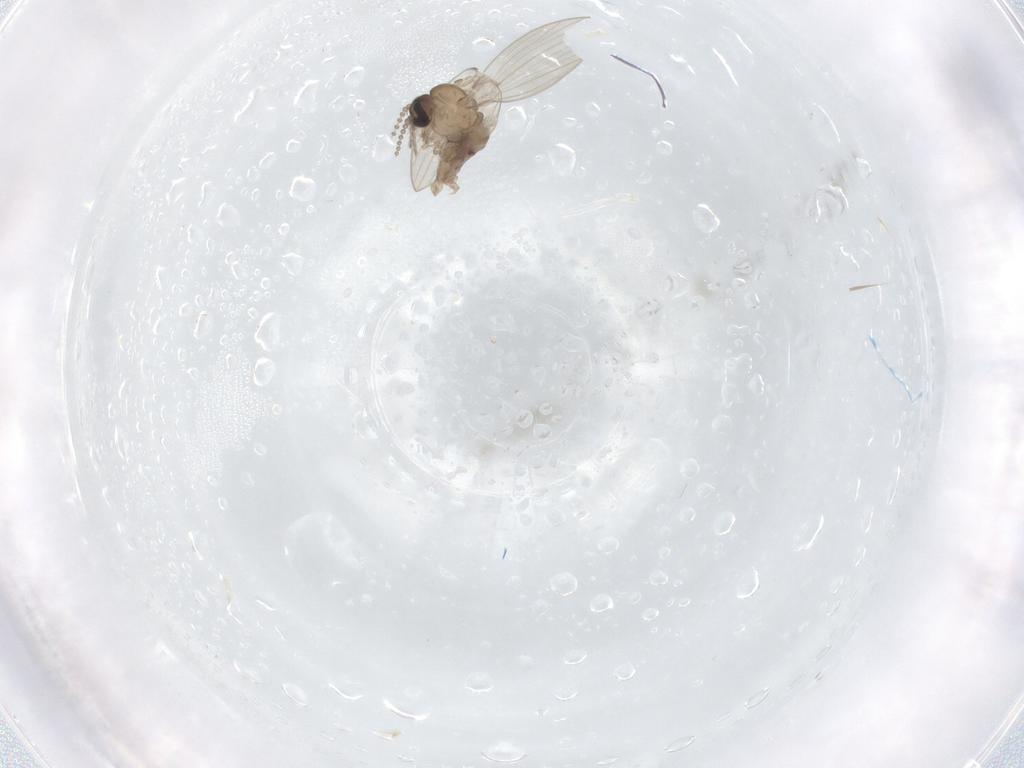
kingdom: Animalia
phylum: Arthropoda
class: Insecta
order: Diptera
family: Psychodidae
